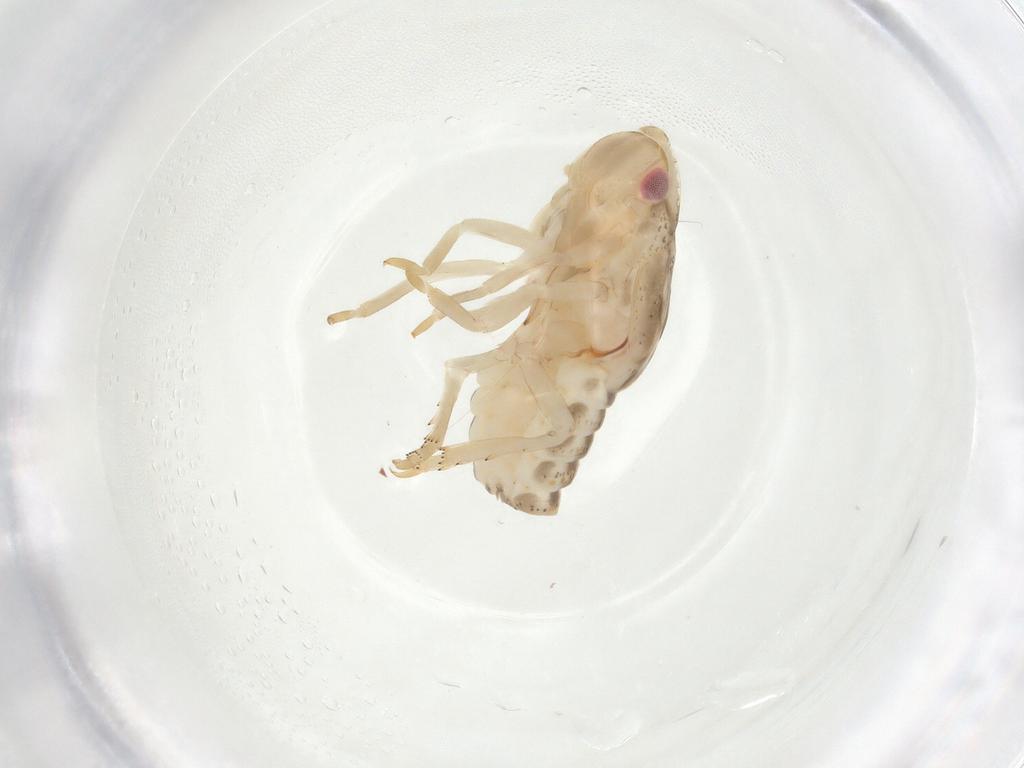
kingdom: Animalia
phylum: Arthropoda
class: Insecta
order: Hemiptera
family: Flatidae
